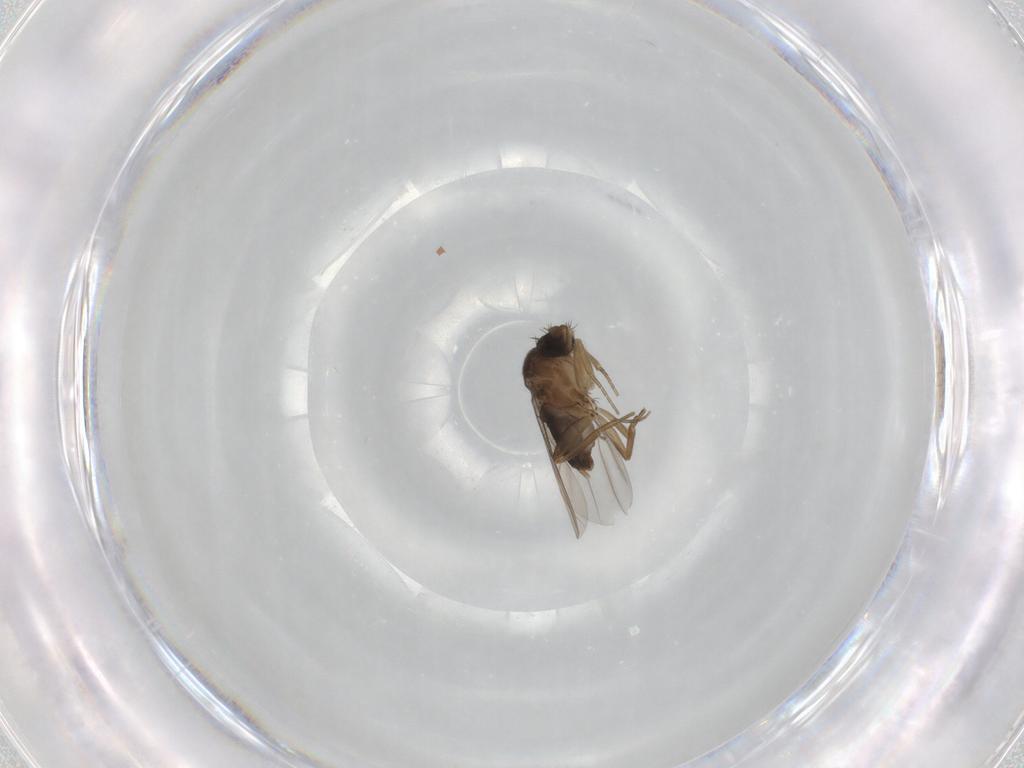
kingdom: Animalia
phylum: Arthropoda
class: Insecta
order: Diptera
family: Phoridae
